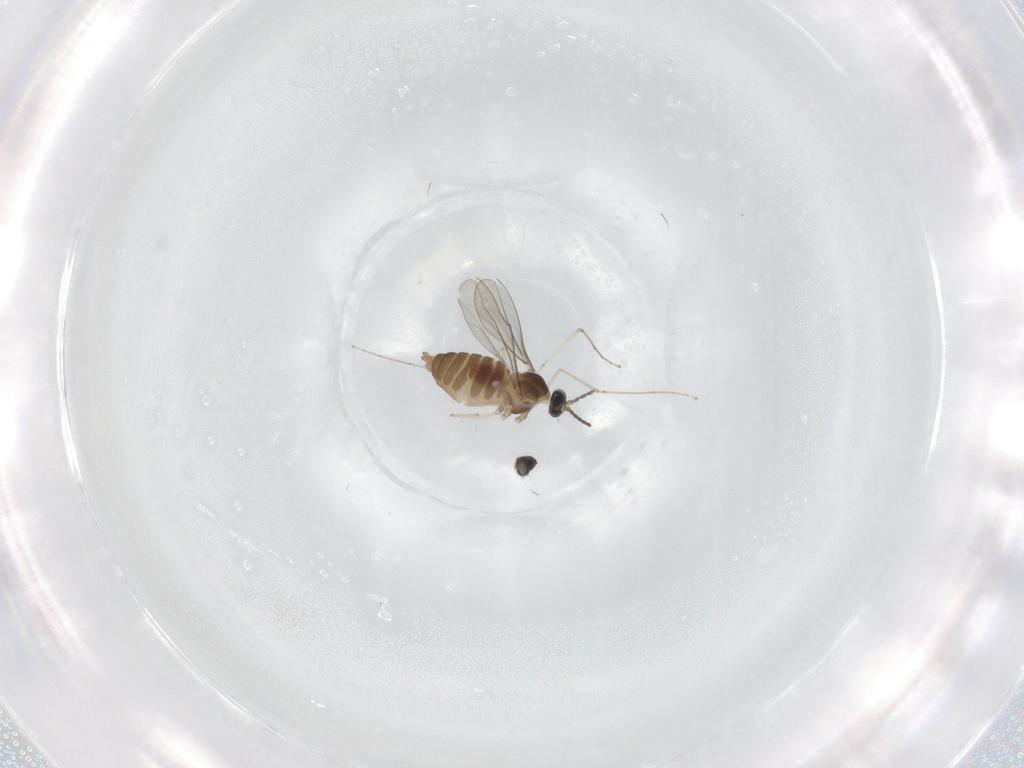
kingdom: Animalia
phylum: Arthropoda
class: Insecta
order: Diptera
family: Cecidomyiidae
